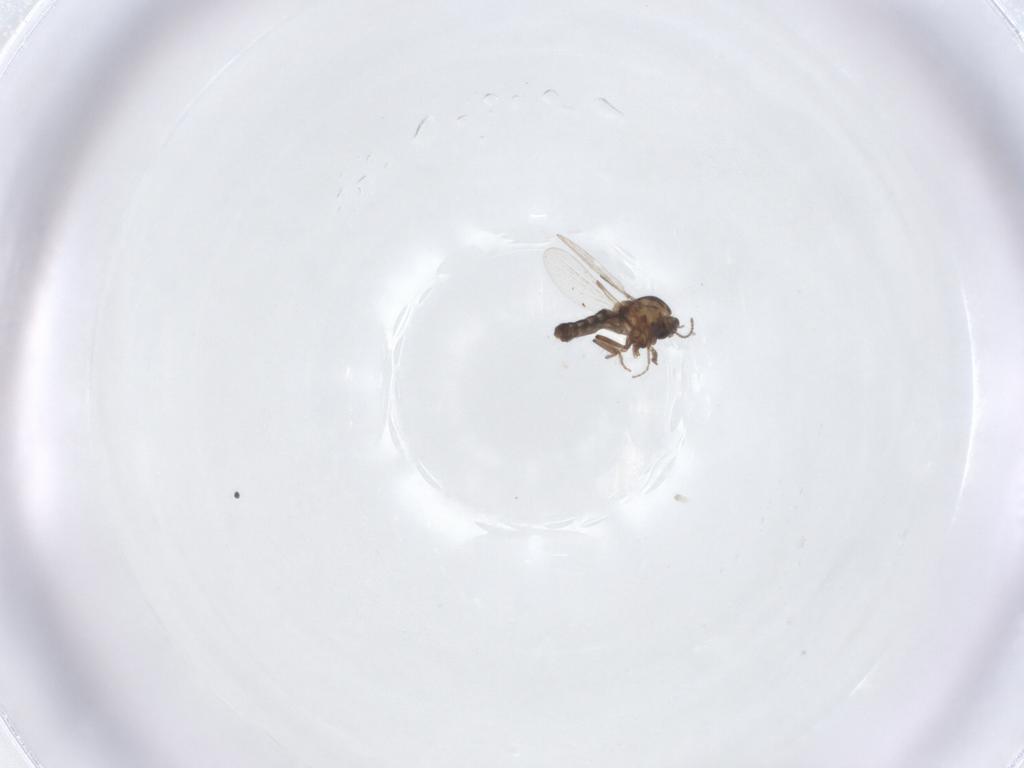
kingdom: Animalia
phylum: Arthropoda
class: Insecta
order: Diptera
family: Ceratopogonidae
